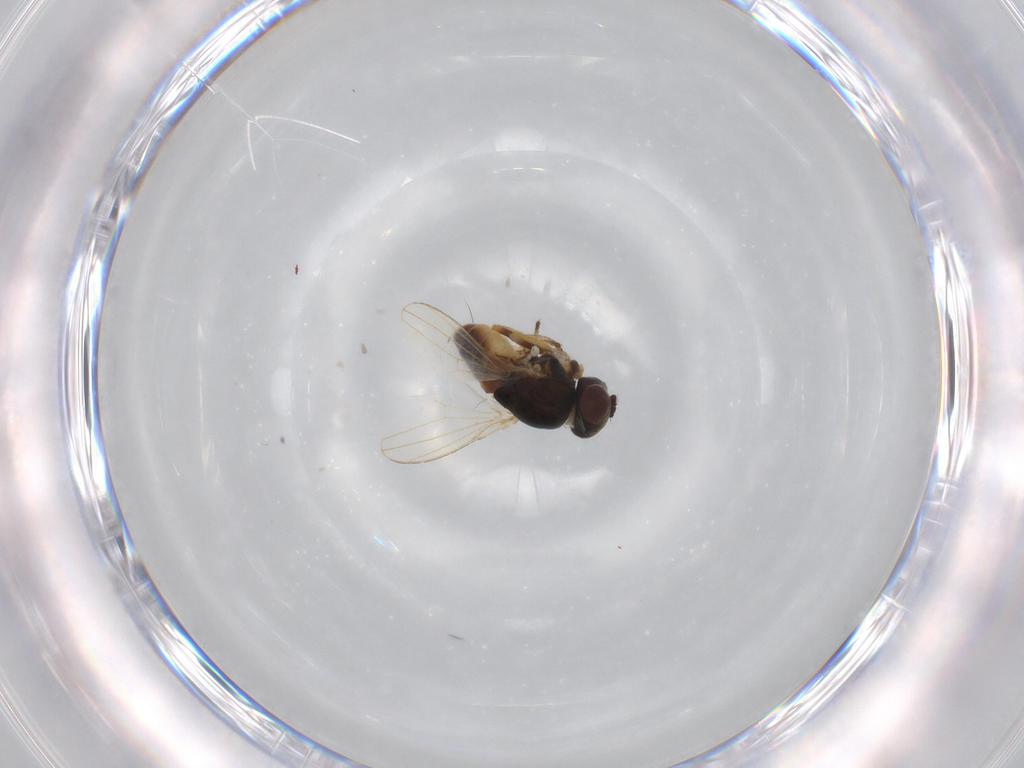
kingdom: Animalia
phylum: Arthropoda
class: Insecta
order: Diptera
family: Ephydridae
